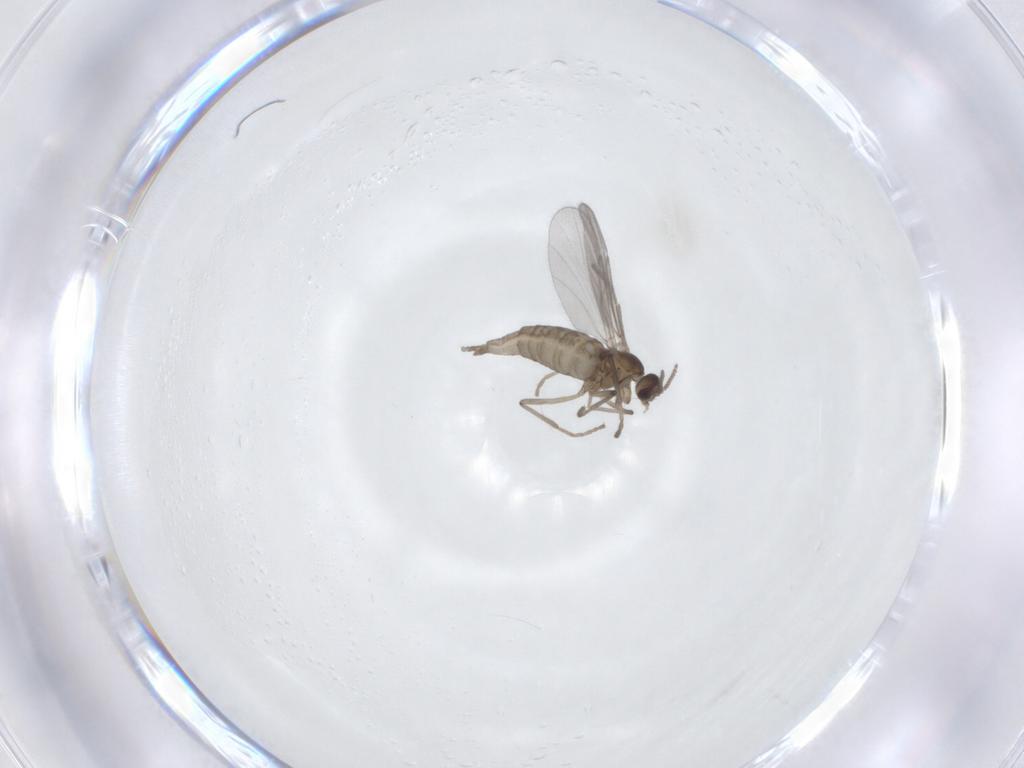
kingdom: Animalia
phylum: Arthropoda
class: Insecta
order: Diptera
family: Cecidomyiidae
